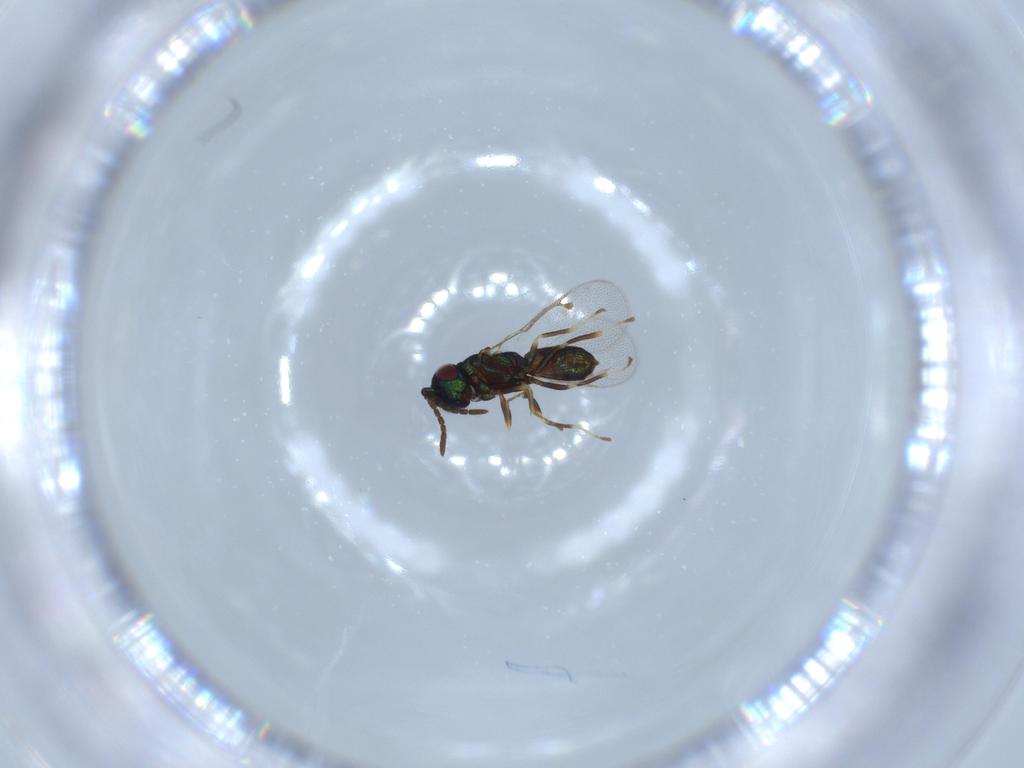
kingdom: Animalia
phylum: Arthropoda
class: Insecta
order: Hymenoptera
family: Pteromalidae
